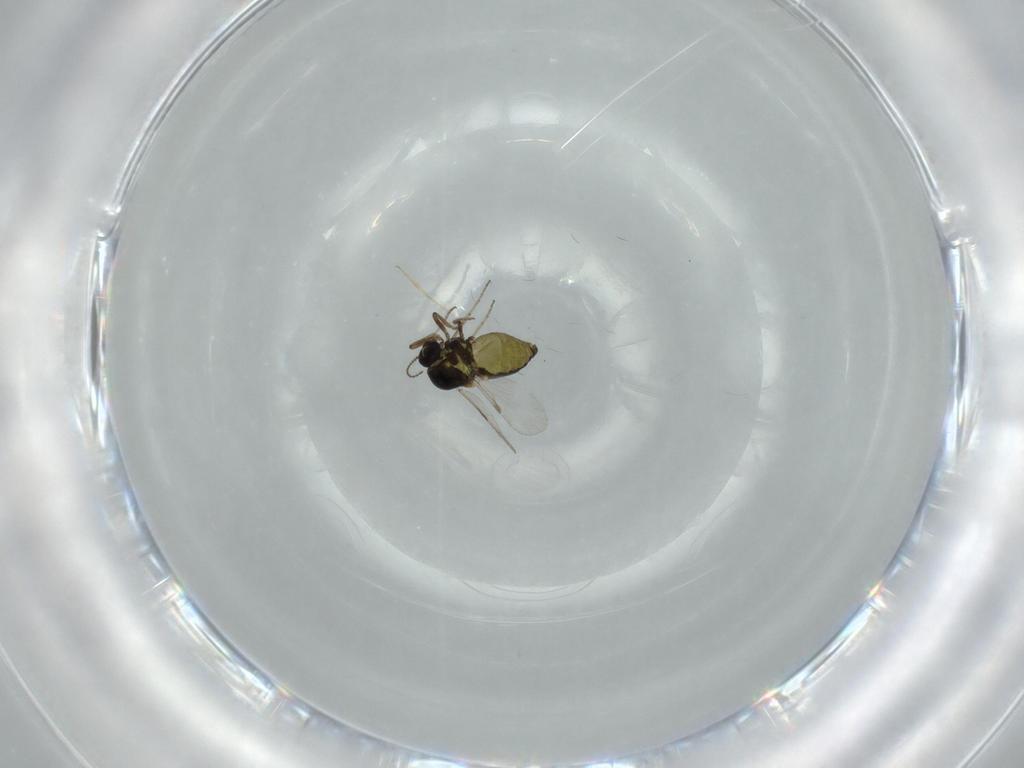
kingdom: Animalia
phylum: Arthropoda
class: Insecta
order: Diptera
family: Ceratopogonidae
